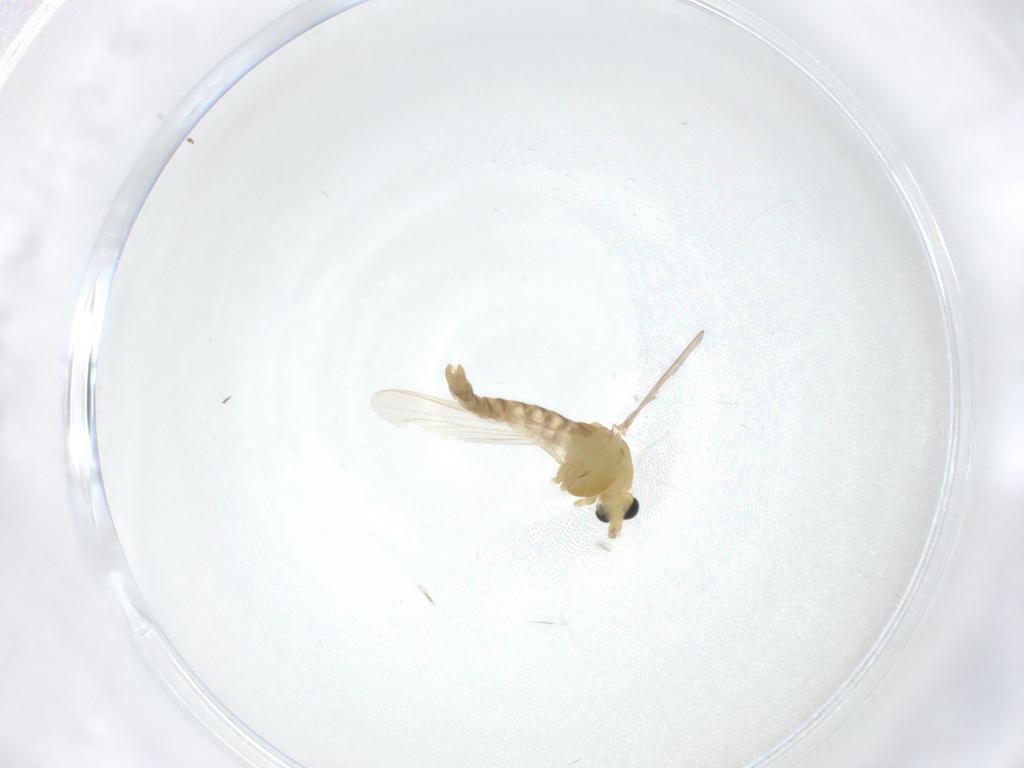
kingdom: Animalia
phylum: Arthropoda
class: Insecta
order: Diptera
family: Chironomidae
